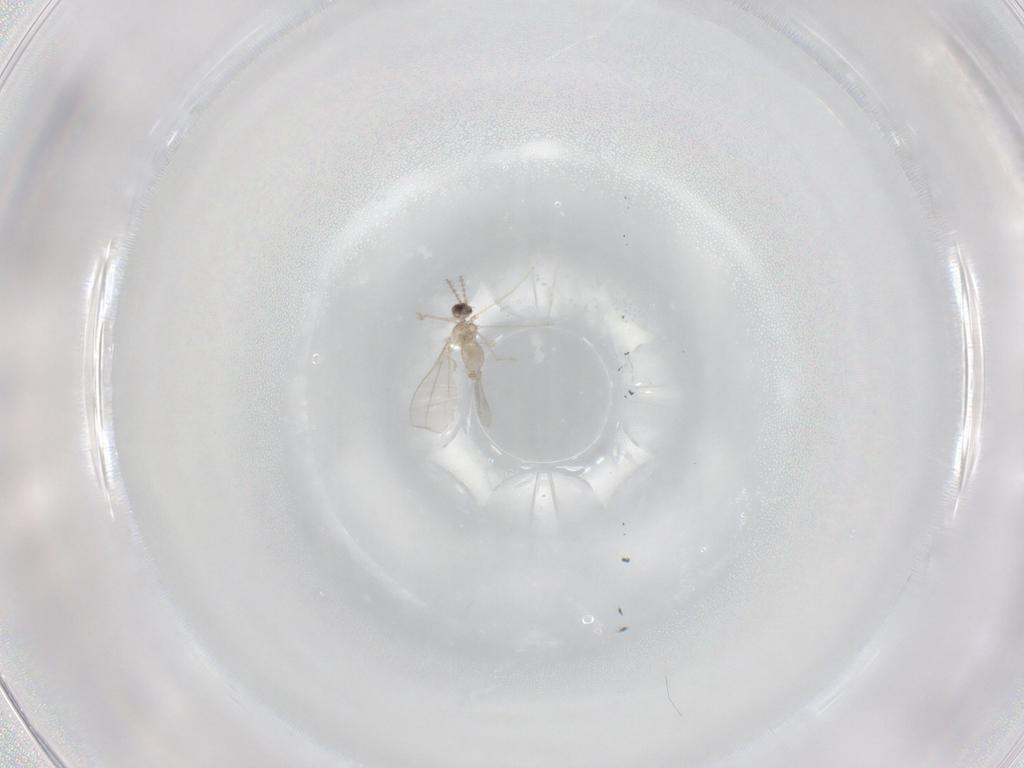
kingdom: Animalia
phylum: Arthropoda
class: Insecta
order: Diptera
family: Ceratopogonidae
